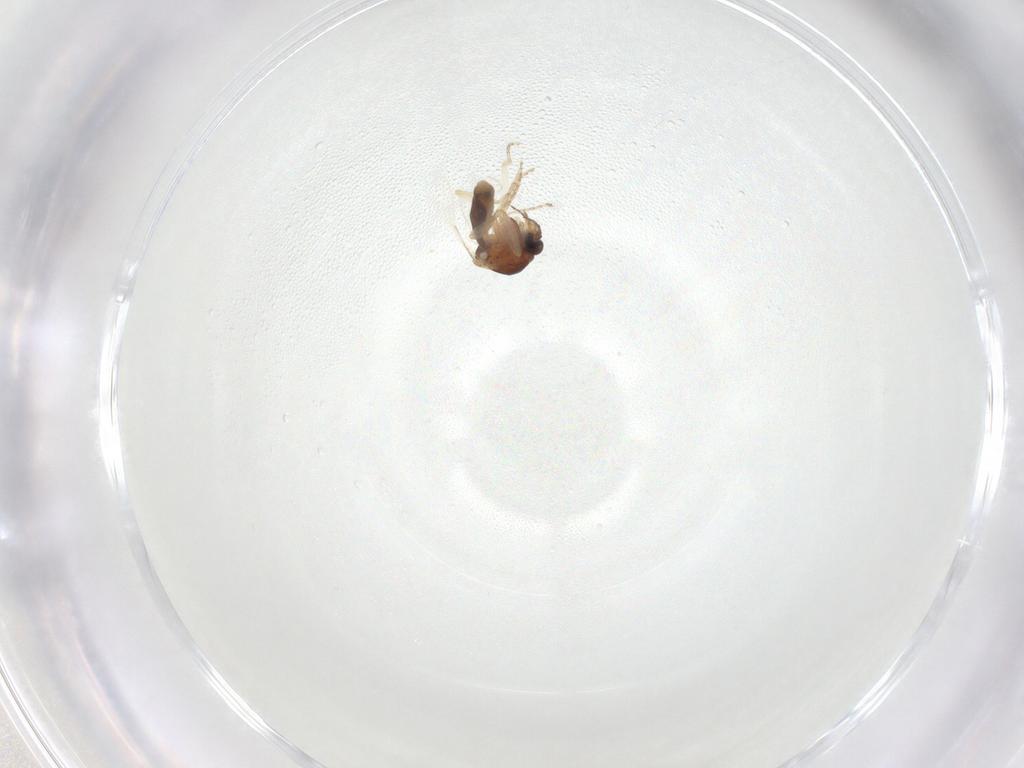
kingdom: Animalia
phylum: Arthropoda
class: Insecta
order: Diptera
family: Ceratopogonidae
